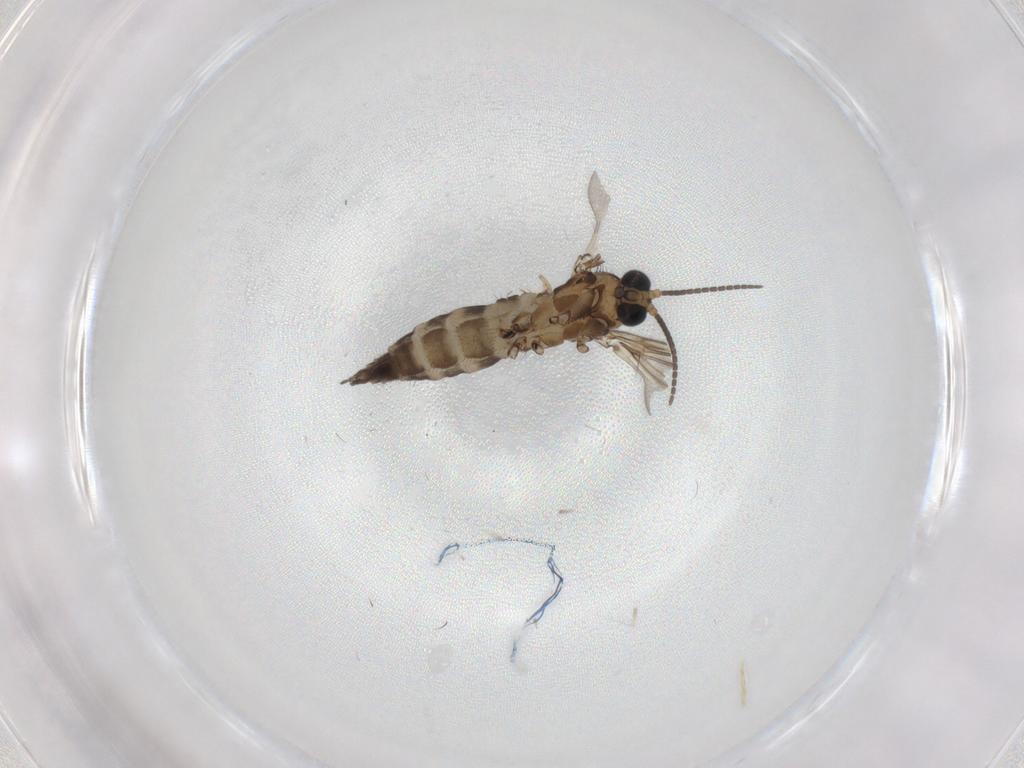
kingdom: Animalia
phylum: Arthropoda
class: Insecta
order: Diptera
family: Sciaridae
